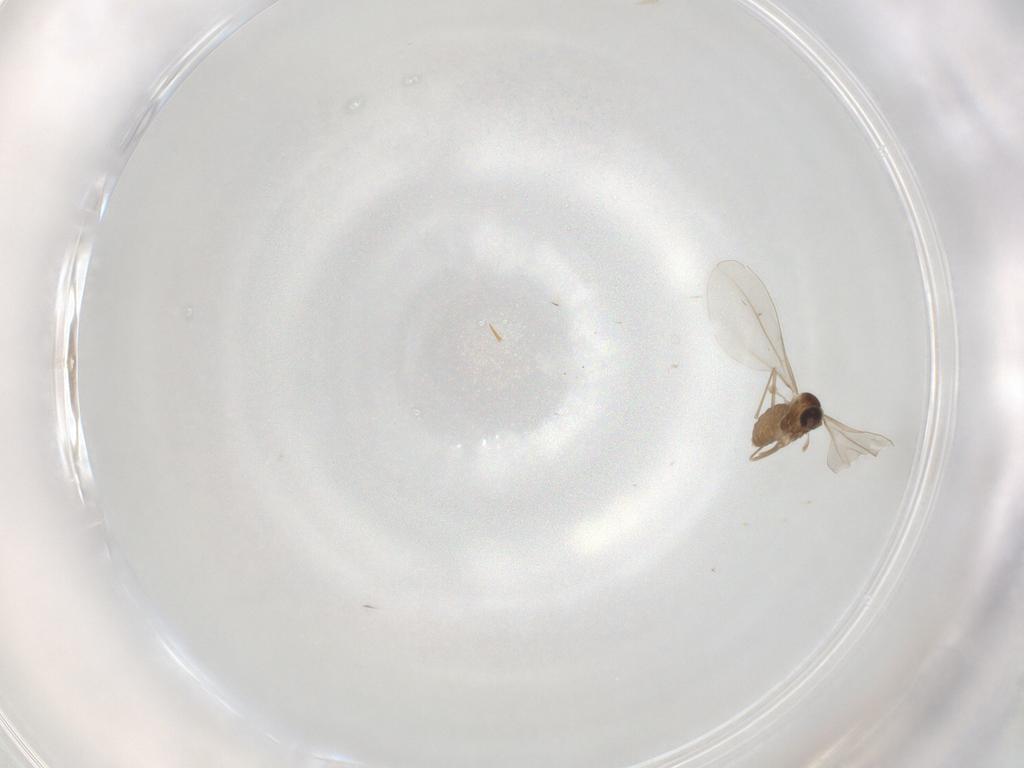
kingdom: Animalia
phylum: Arthropoda
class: Insecta
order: Diptera
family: Cecidomyiidae
